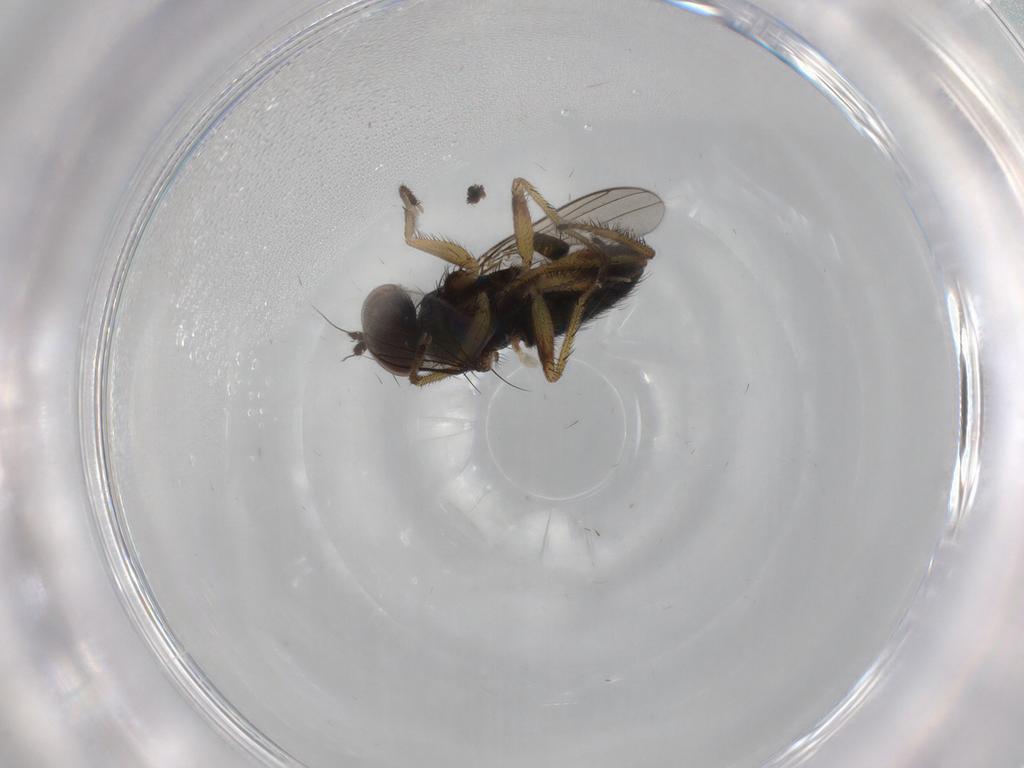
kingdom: Animalia
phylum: Arthropoda
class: Insecta
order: Diptera
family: Dolichopodidae
